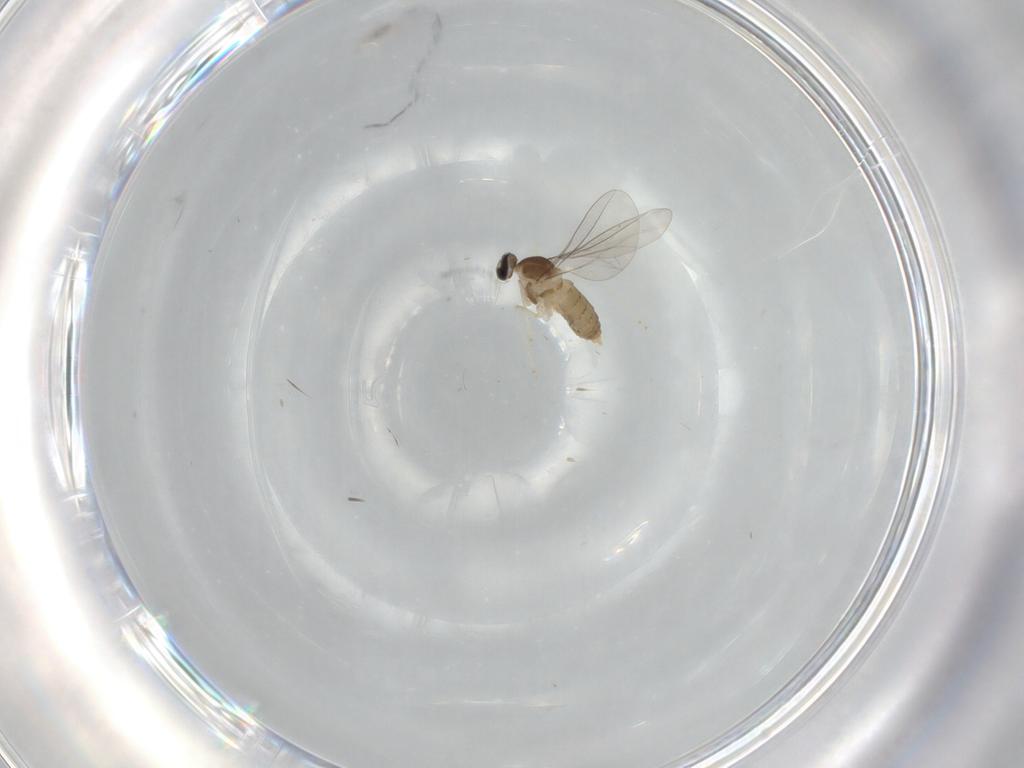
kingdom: Animalia
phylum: Arthropoda
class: Insecta
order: Diptera
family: Cecidomyiidae
